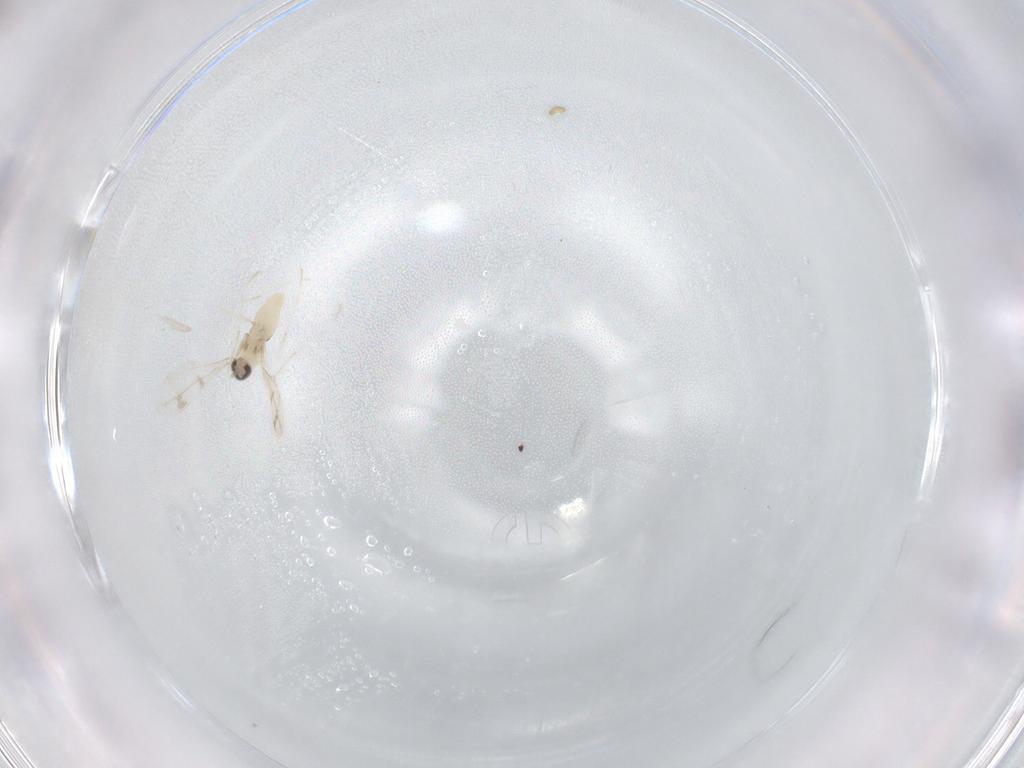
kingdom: Animalia
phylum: Arthropoda
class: Insecta
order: Diptera
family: Cecidomyiidae
